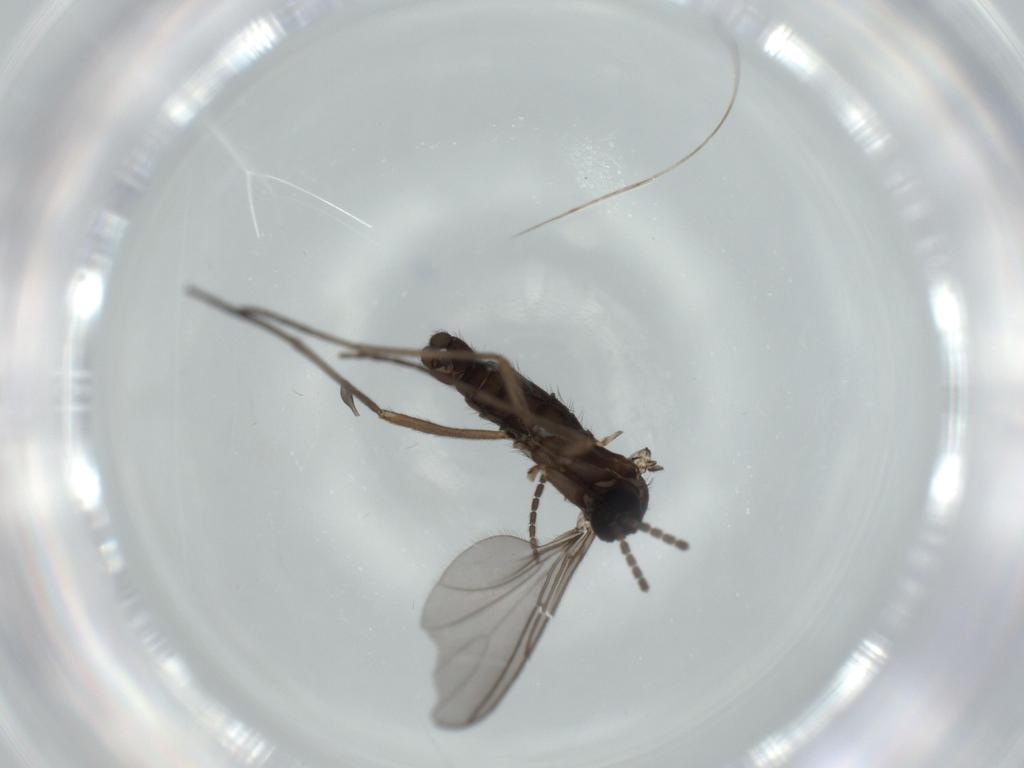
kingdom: Animalia
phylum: Arthropoda
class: Insecta
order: Diptera
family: Sciaridae
